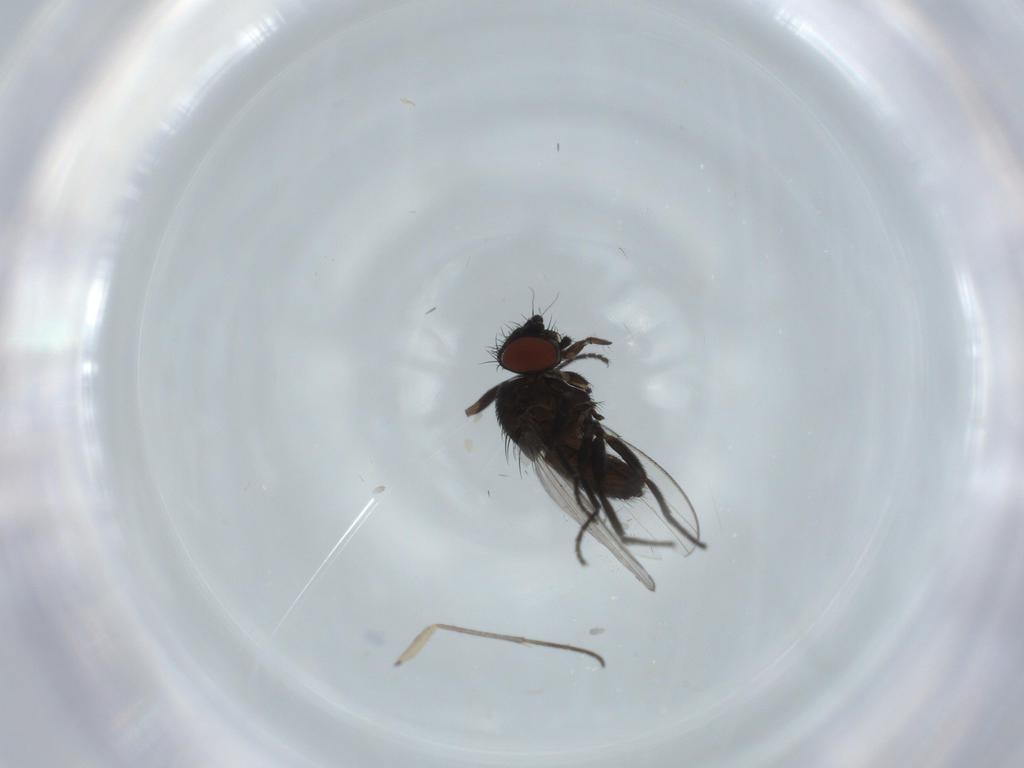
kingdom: Animalia
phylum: Arthropoda
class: Insecta
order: Diptera
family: Milichiidae
